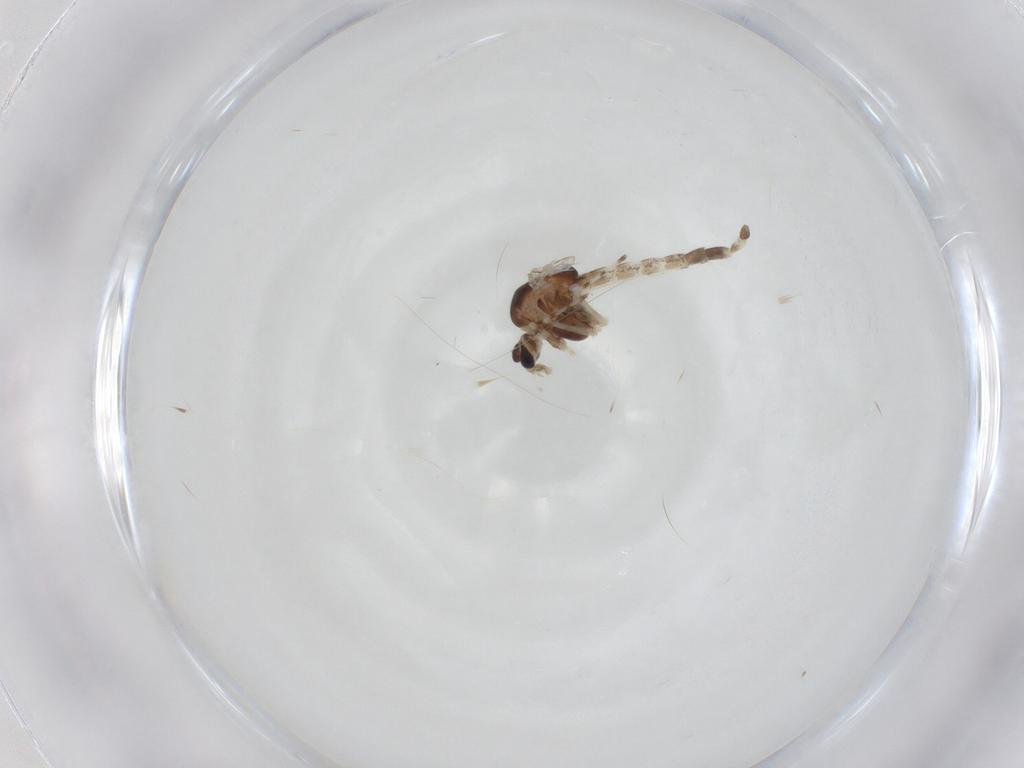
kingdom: Animalia
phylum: Arthropoda
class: Insecta
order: Diptera
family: Chironomidae
